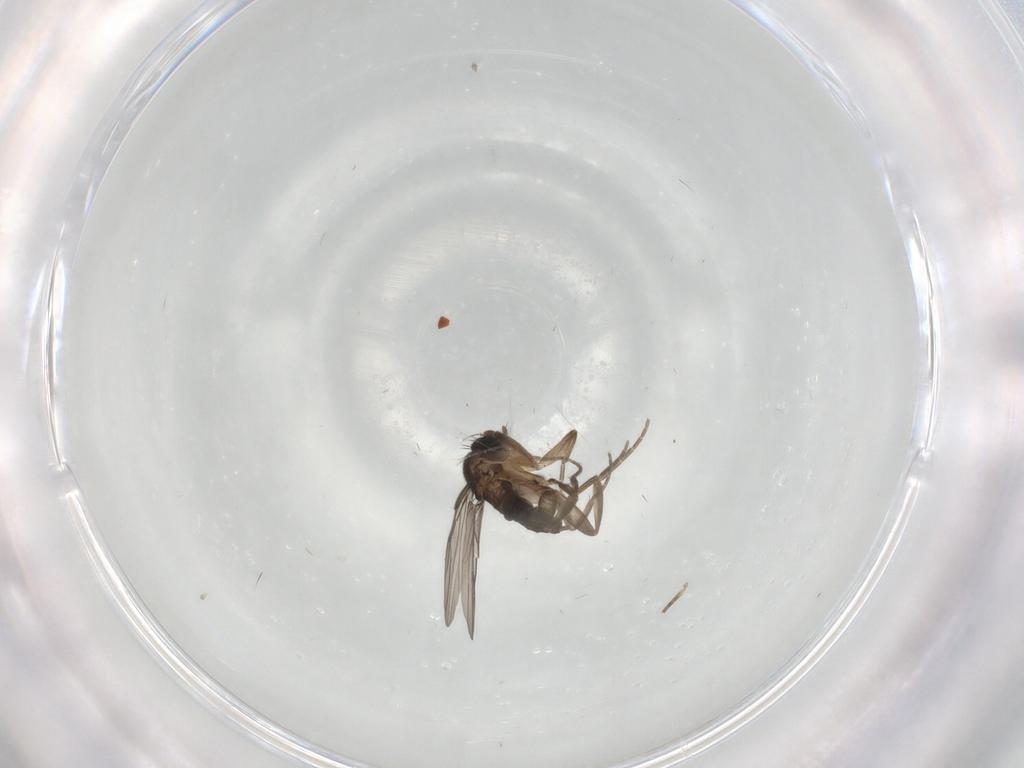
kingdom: Animalia
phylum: Arthropoda
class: Insecta
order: Diptera
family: Phoridae
